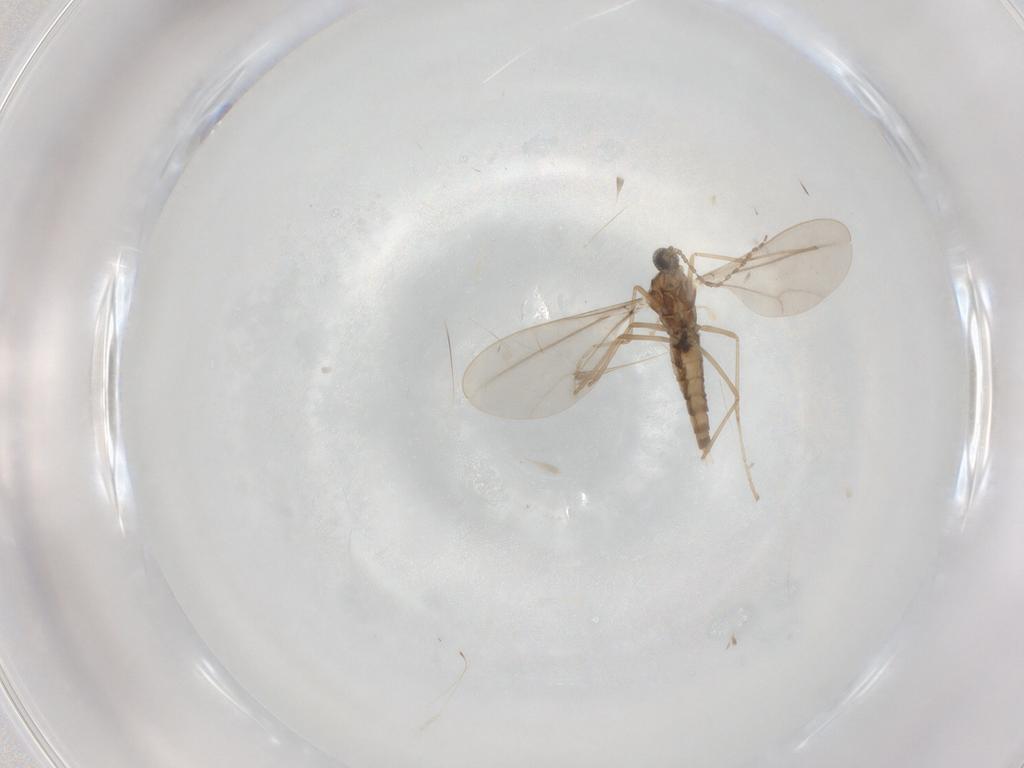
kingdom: Animalia
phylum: Arthropoda
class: Insecta
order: Diptera
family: Cecidomyiidae
